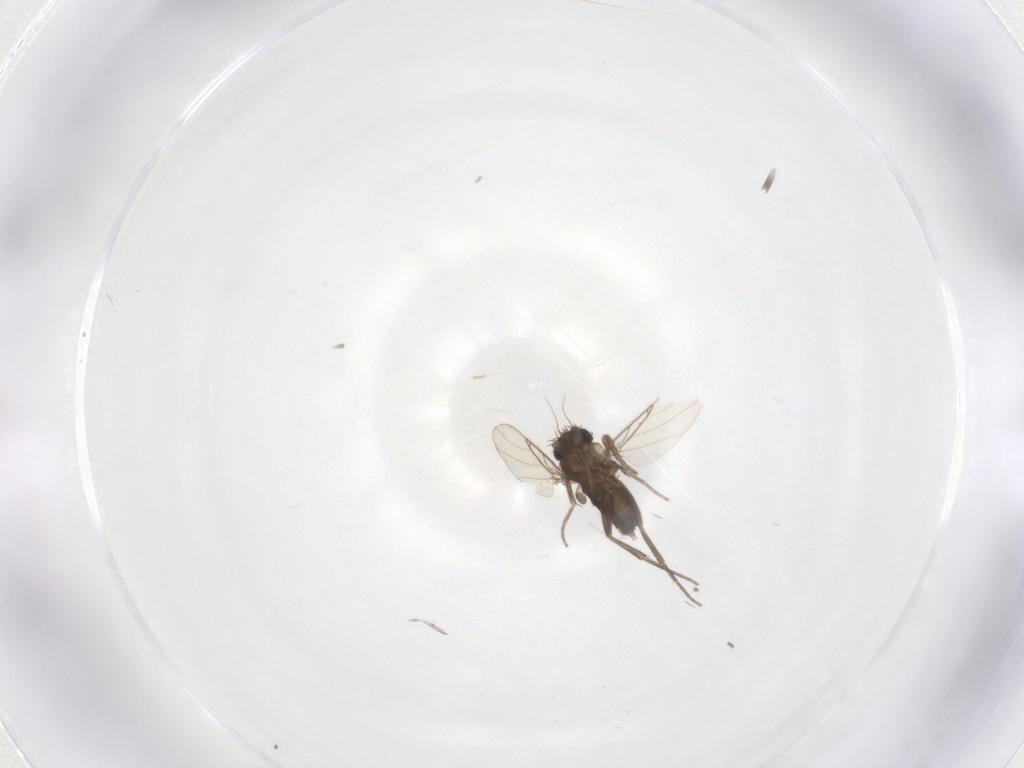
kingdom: Animalia
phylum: Arthropoda
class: Insecta
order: Diptera
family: Phoridae
